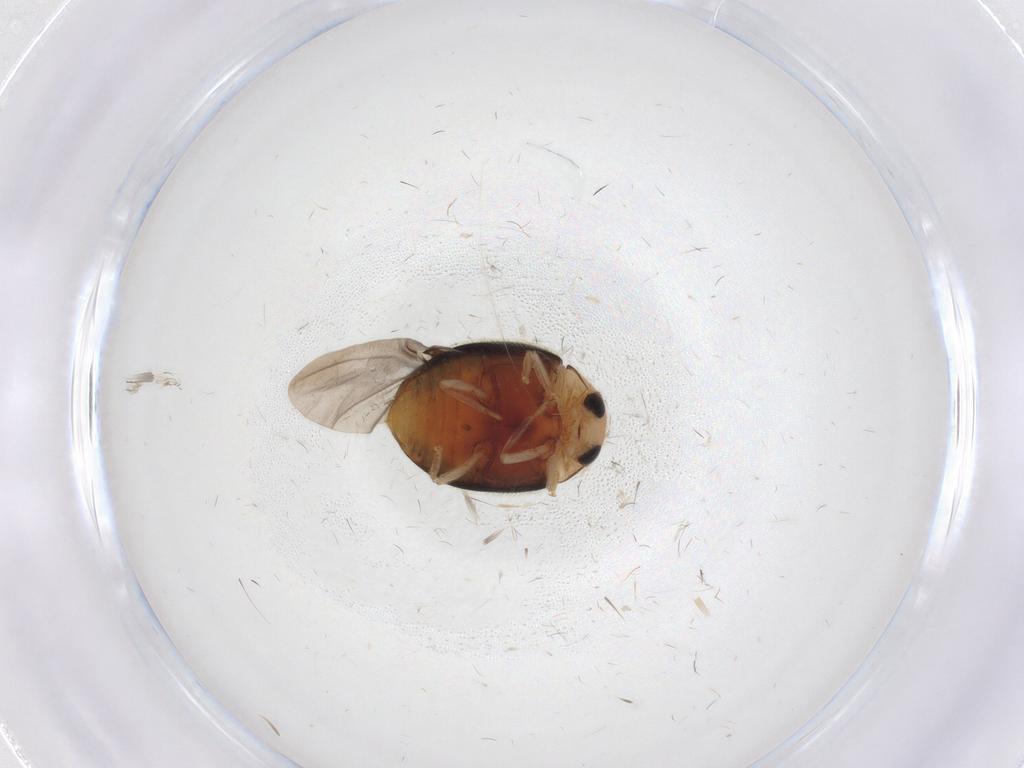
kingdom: Animalia
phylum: Arthropoda
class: Insecta
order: Coleoptera
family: Coccinellidae
